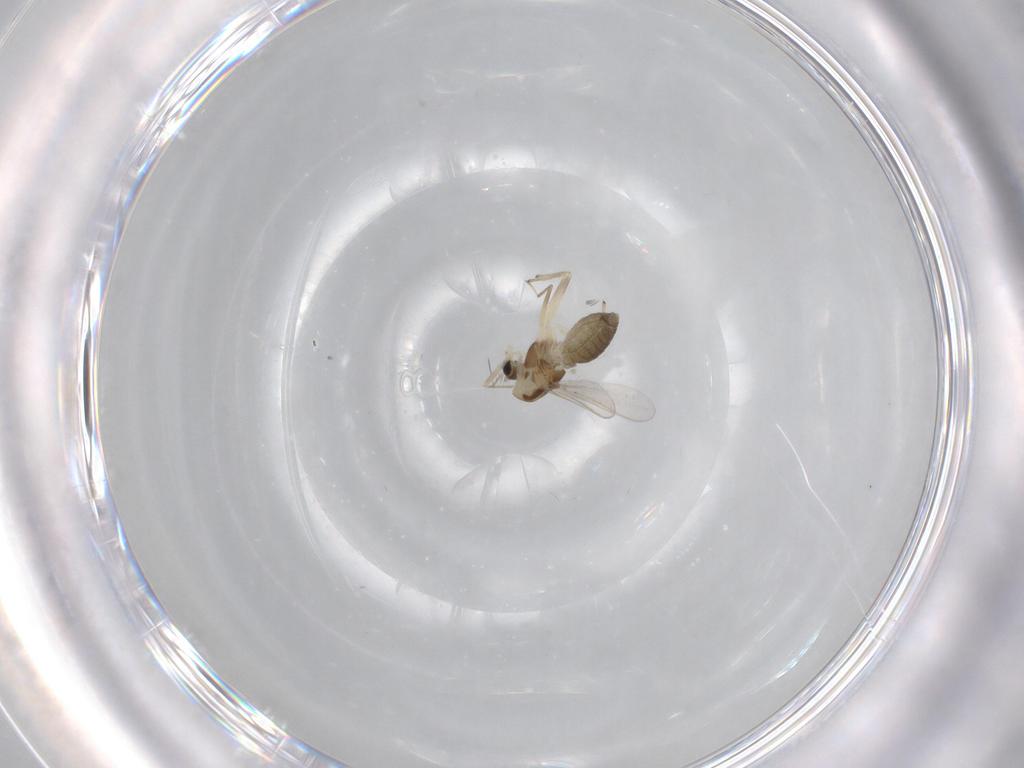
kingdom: Animalia
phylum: Arthropoda
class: Insecta
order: Diptera
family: Chironomidae
